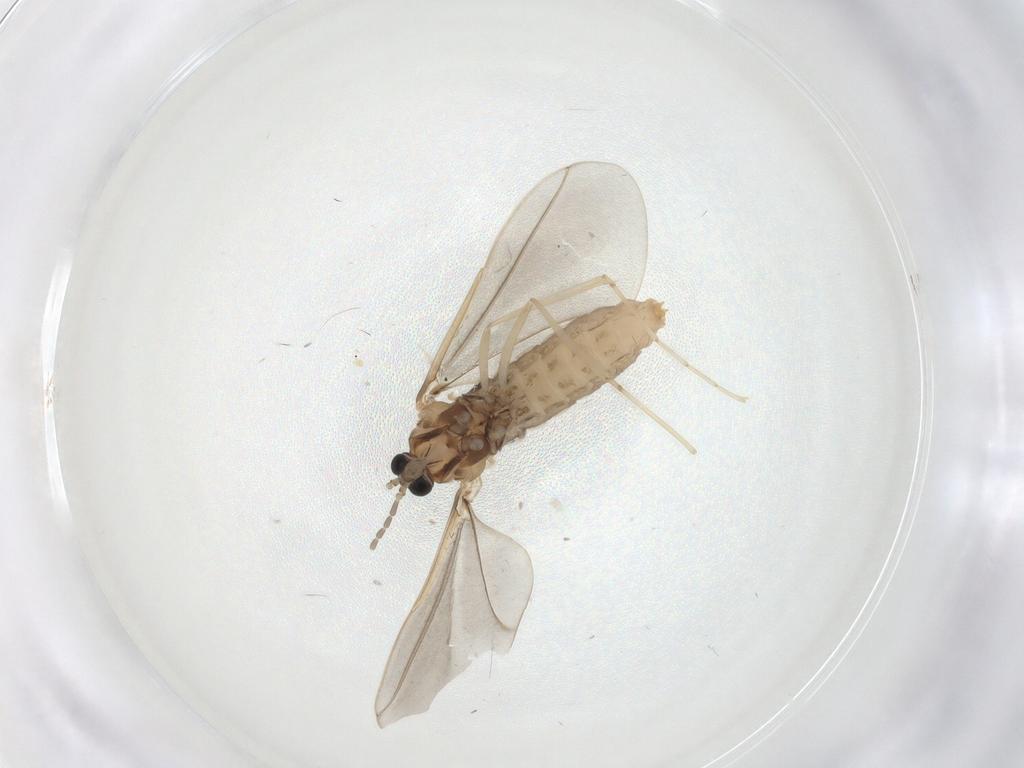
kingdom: Animalia
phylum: Arthropoda
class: Insecta
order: Diptera
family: Cecidomyiidae
